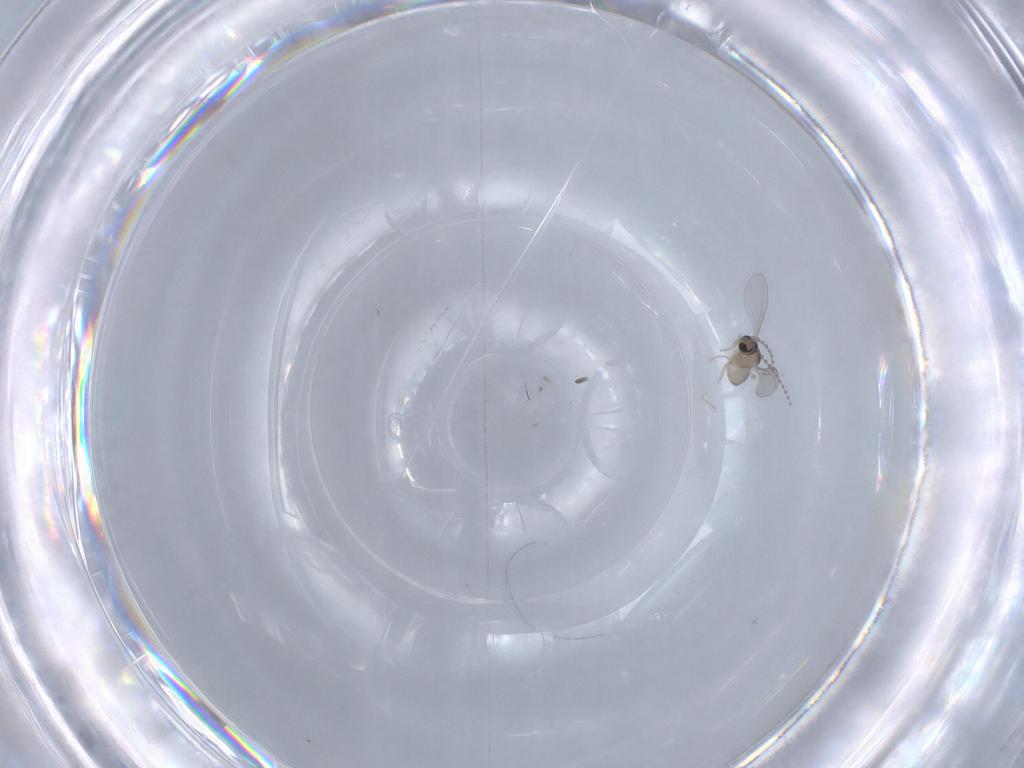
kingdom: Animalia
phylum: Arthropoda
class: Insecta
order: Diptera
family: Cecidomyiidae
